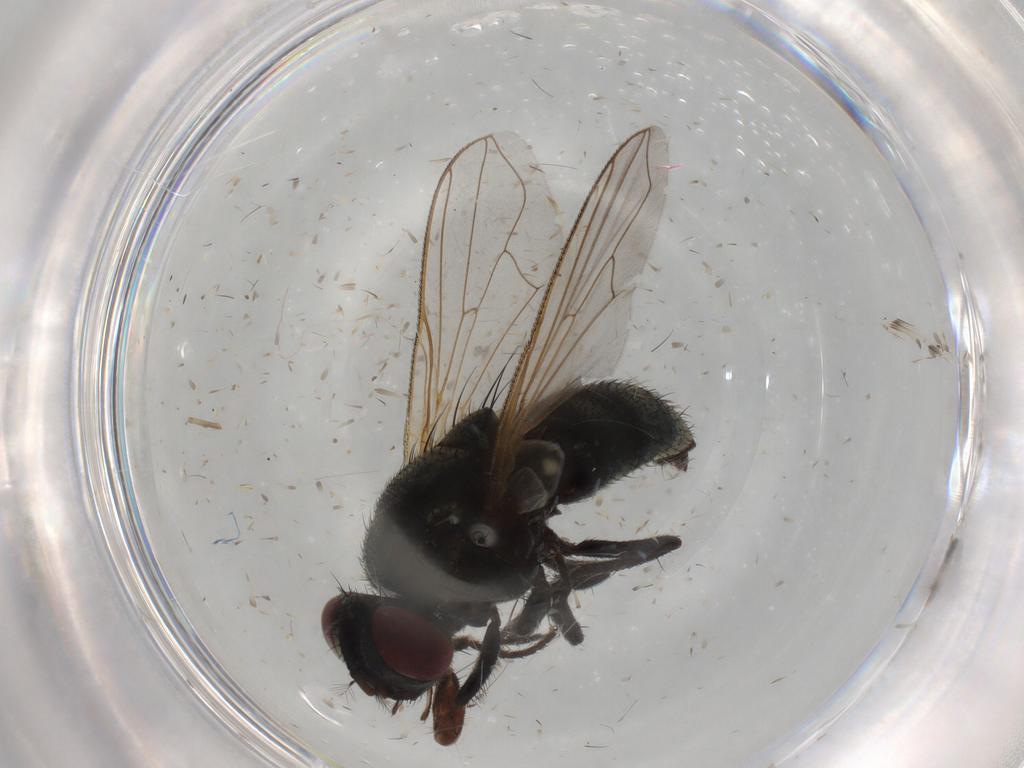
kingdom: Animalia
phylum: Arthropoda
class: Insecta
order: Diptera
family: Muscidae
